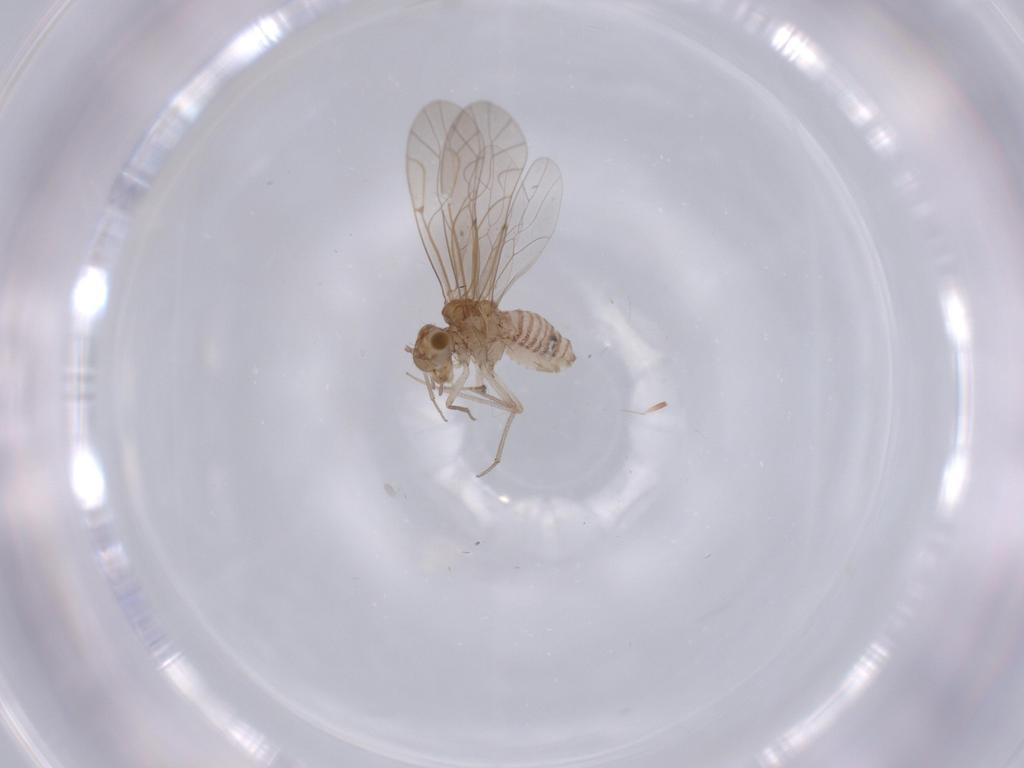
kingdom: Animalia
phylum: Arthropoda
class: Insecta
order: Psocodea
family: Lachesillidae
